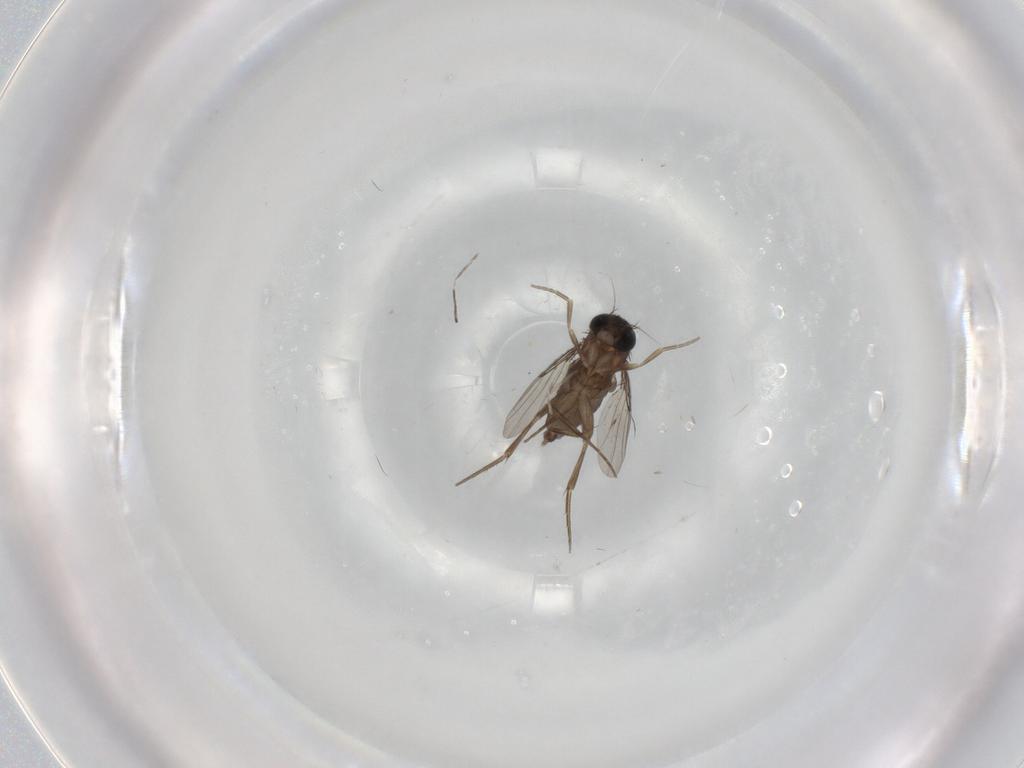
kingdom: Animalia
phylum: Arthropoda
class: Insecta
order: Diptera
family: Phoridae
